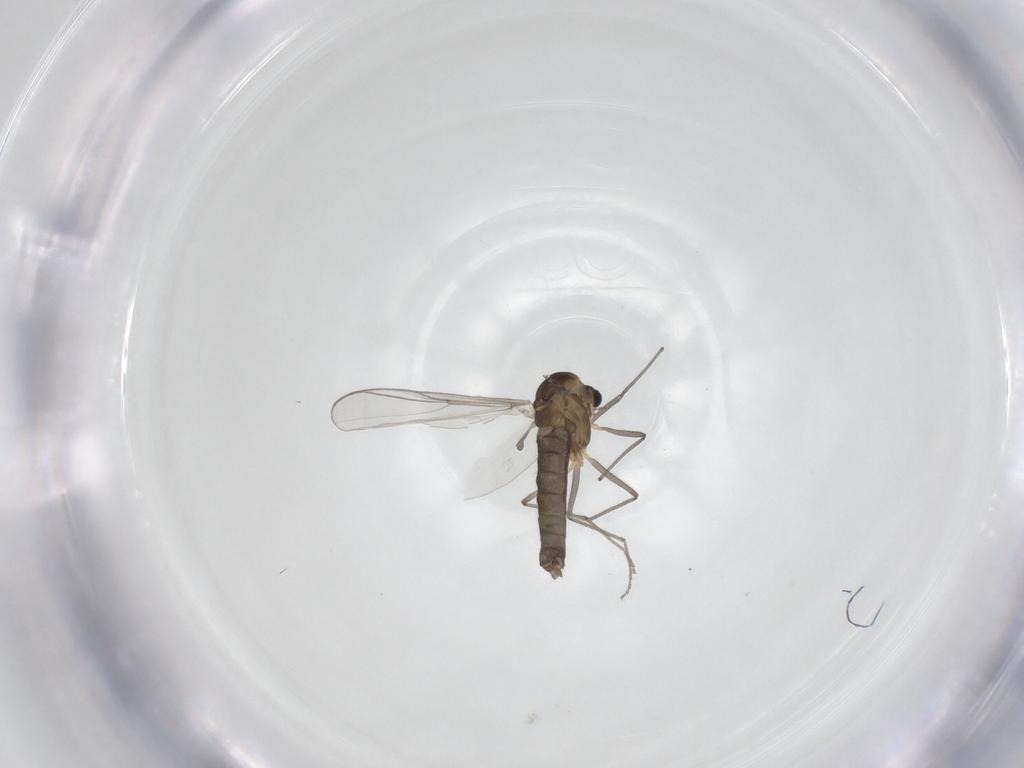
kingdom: Animalia
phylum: Arthropoda
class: Insecta
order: Diptera
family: Chironomidae
